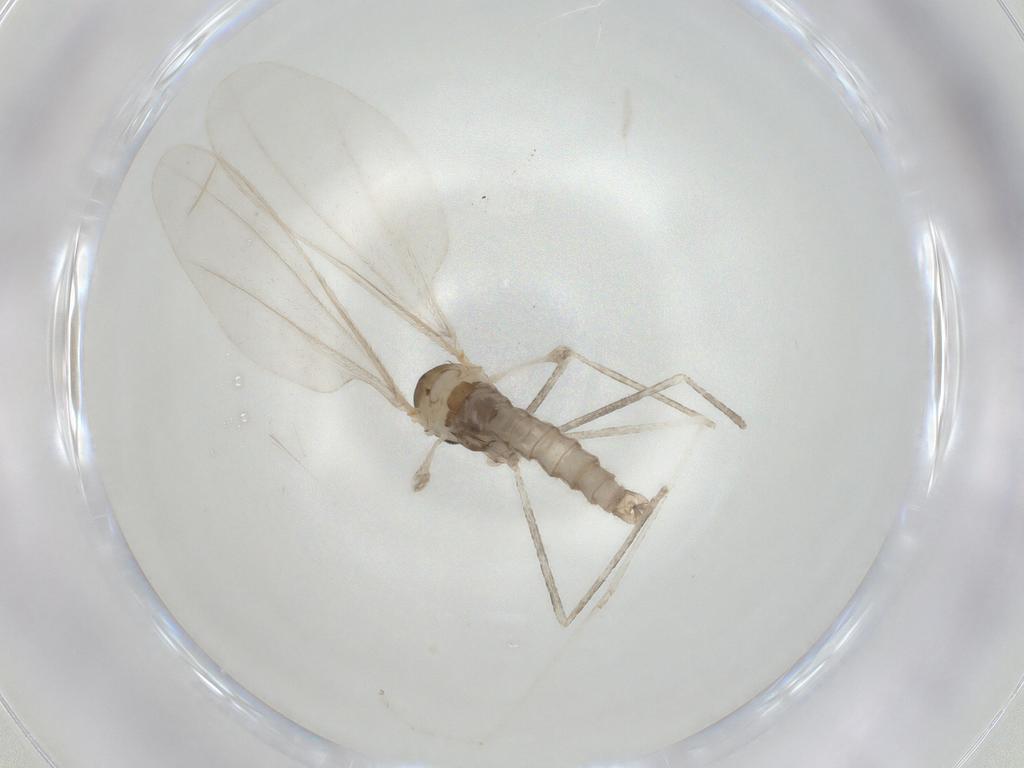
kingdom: Animalia
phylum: Arthropoda
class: Insecta
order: Diptera
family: Cecidomyiidae
